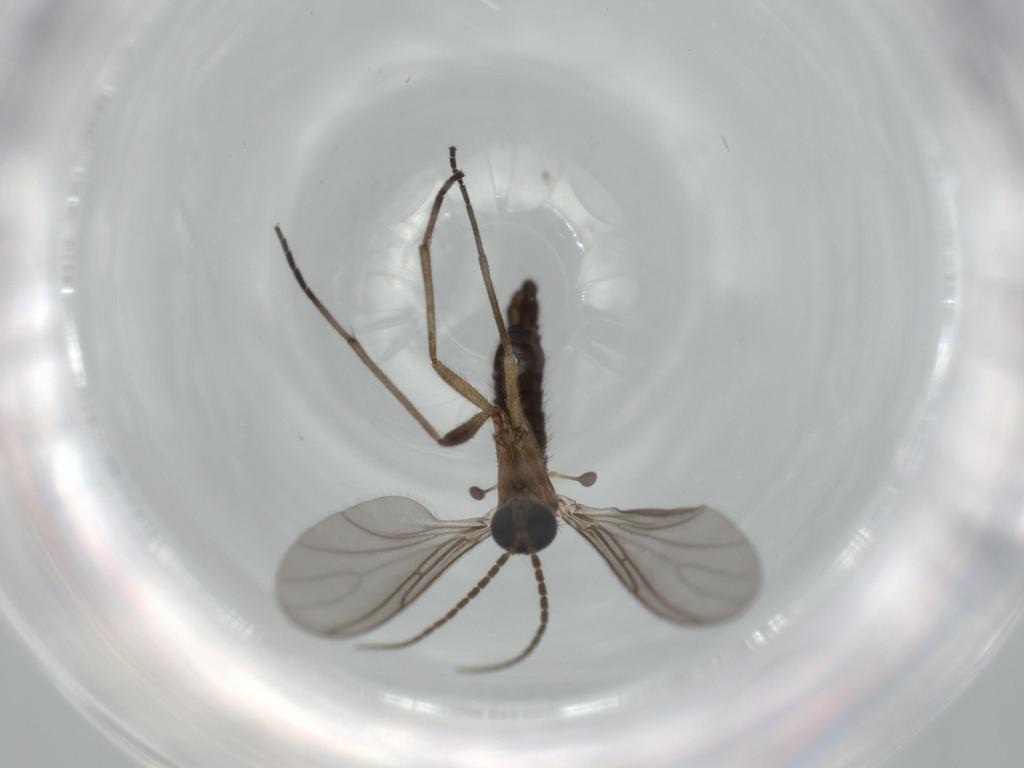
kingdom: Animalia
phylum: Arthropoda
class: Insecta
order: Diptera
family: Sciaridae
